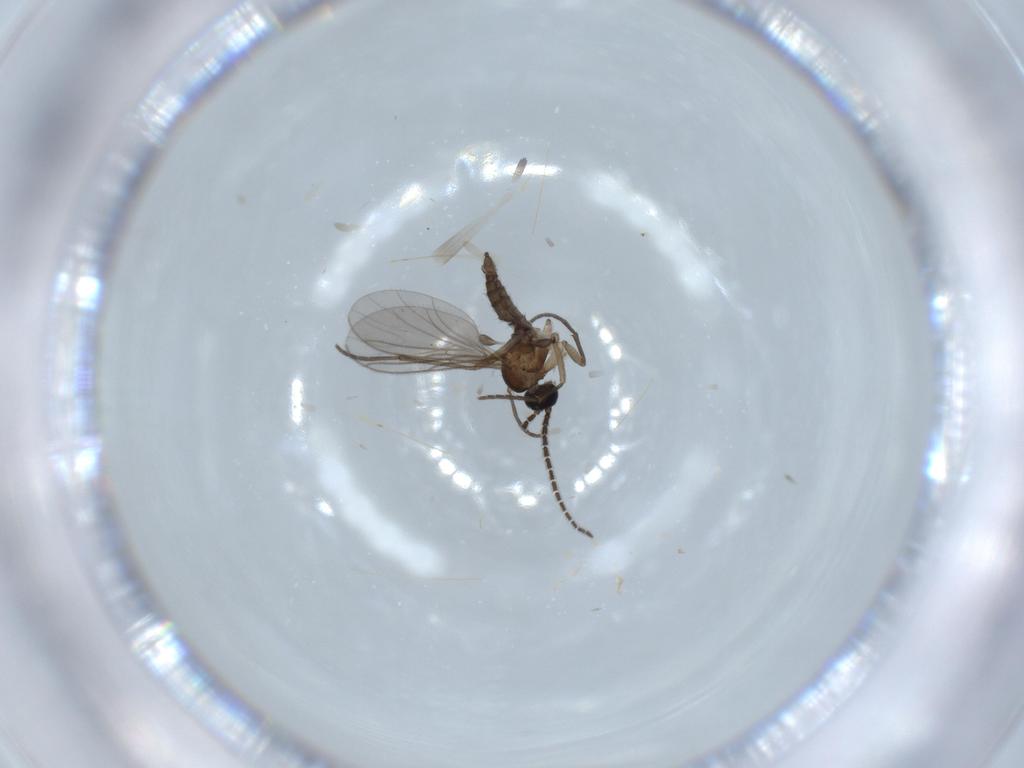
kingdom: Animalia
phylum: Arthropoda
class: Insecta
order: Diptera
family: Sciaridae
